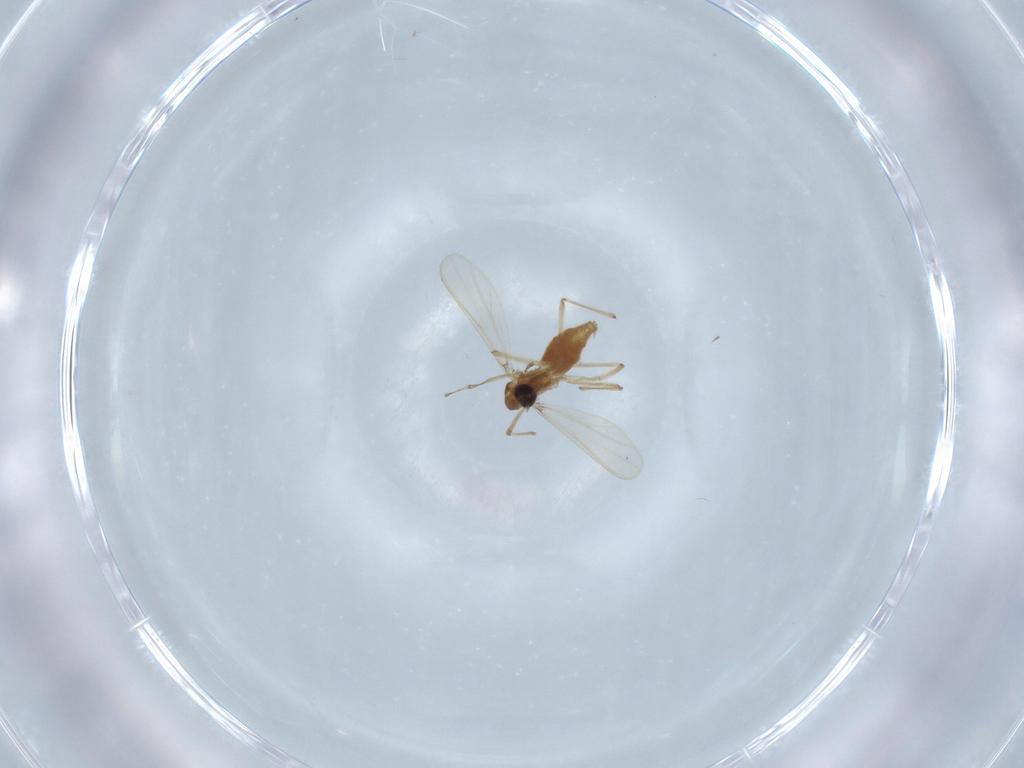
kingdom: Animalia
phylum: Arthropoda
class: Insecta
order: Diptera
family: Chironomidae
